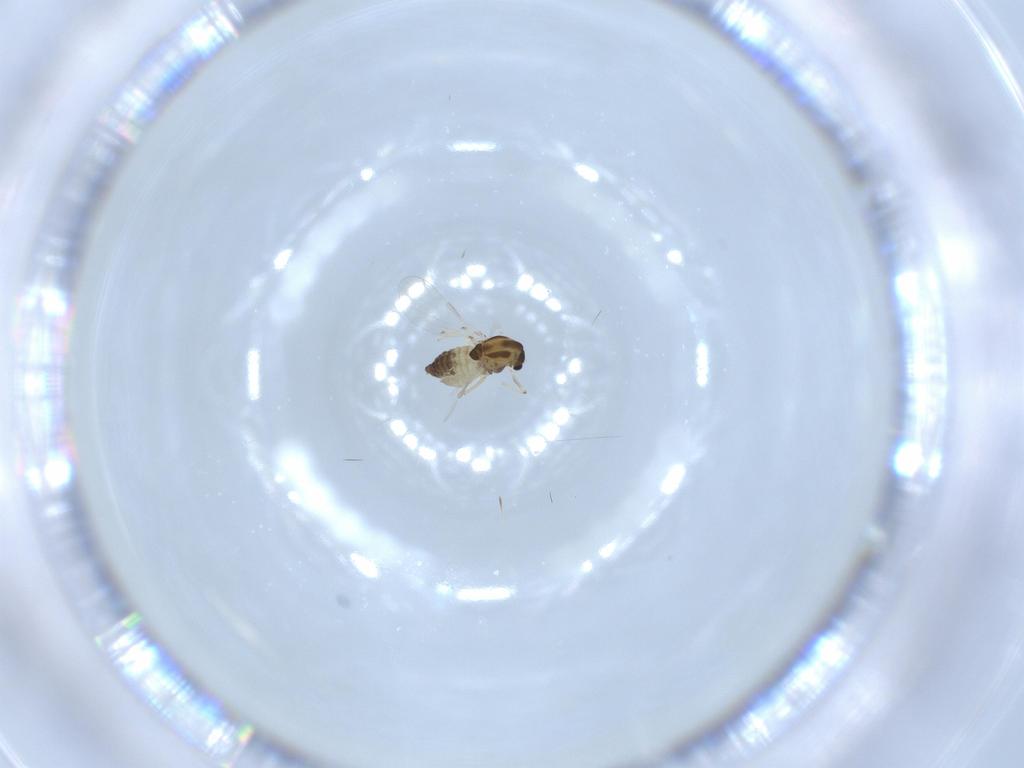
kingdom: Animalia
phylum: Arthropoda
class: Insecta
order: Diptera
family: Chironomidae
